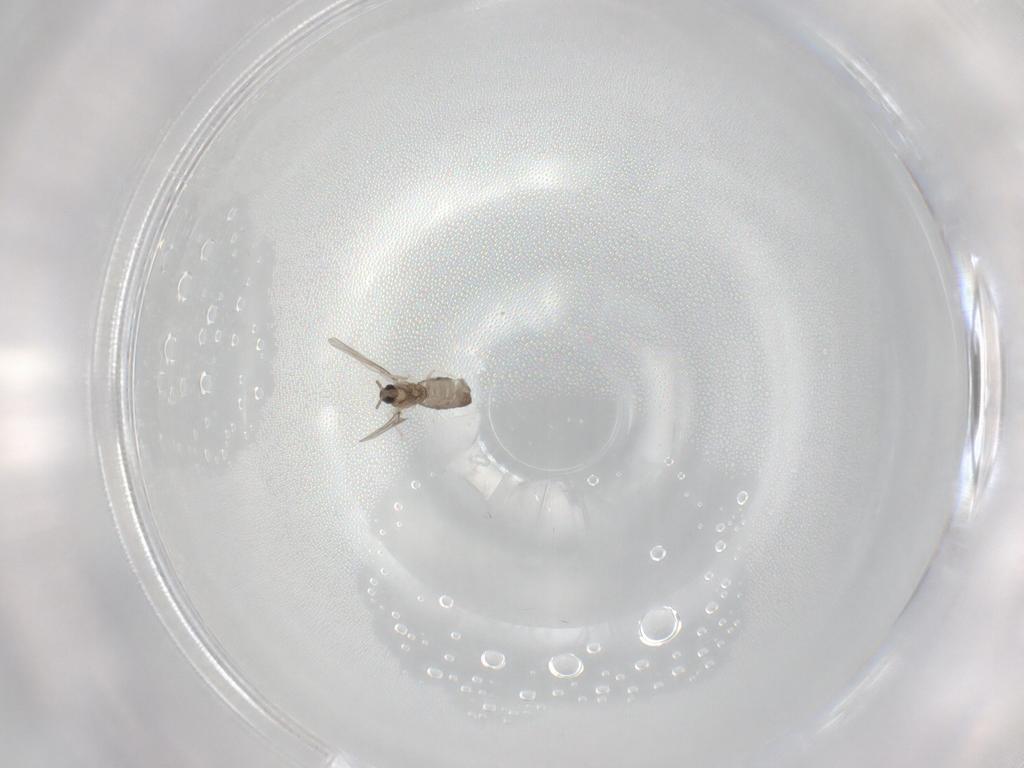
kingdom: Animalia
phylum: Arthropoda
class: Insecta
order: Diptera
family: Cecidomyiidae
